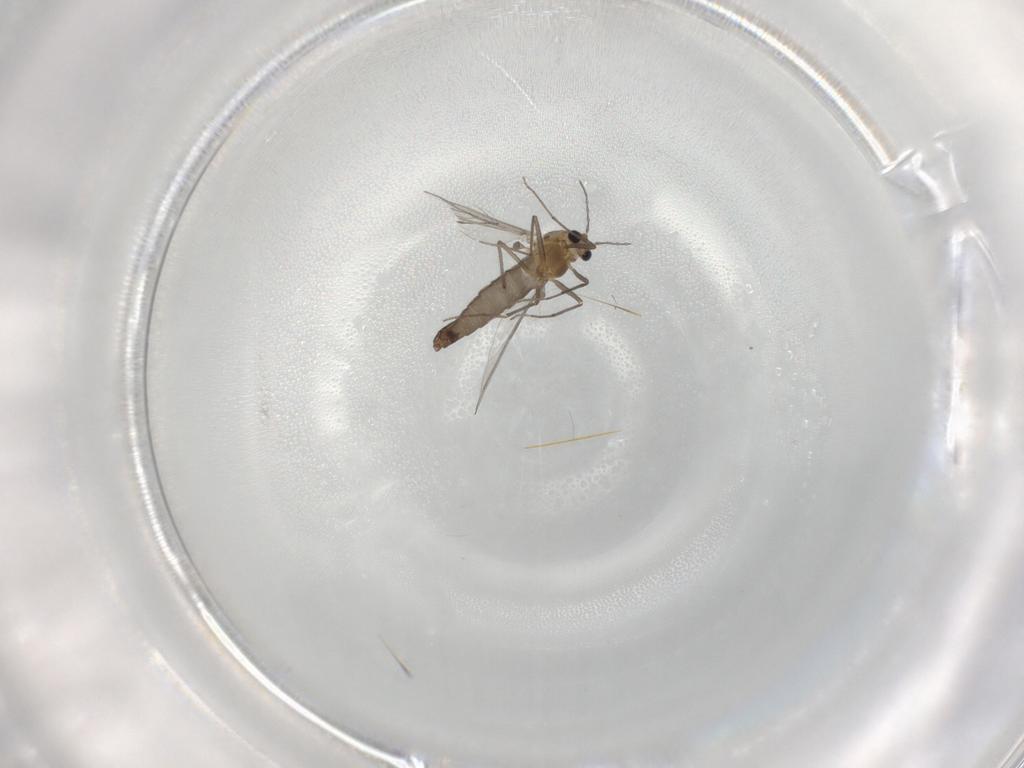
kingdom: Animalia
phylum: Arthropoda
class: Insecta
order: Diptera
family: Chironomidae
